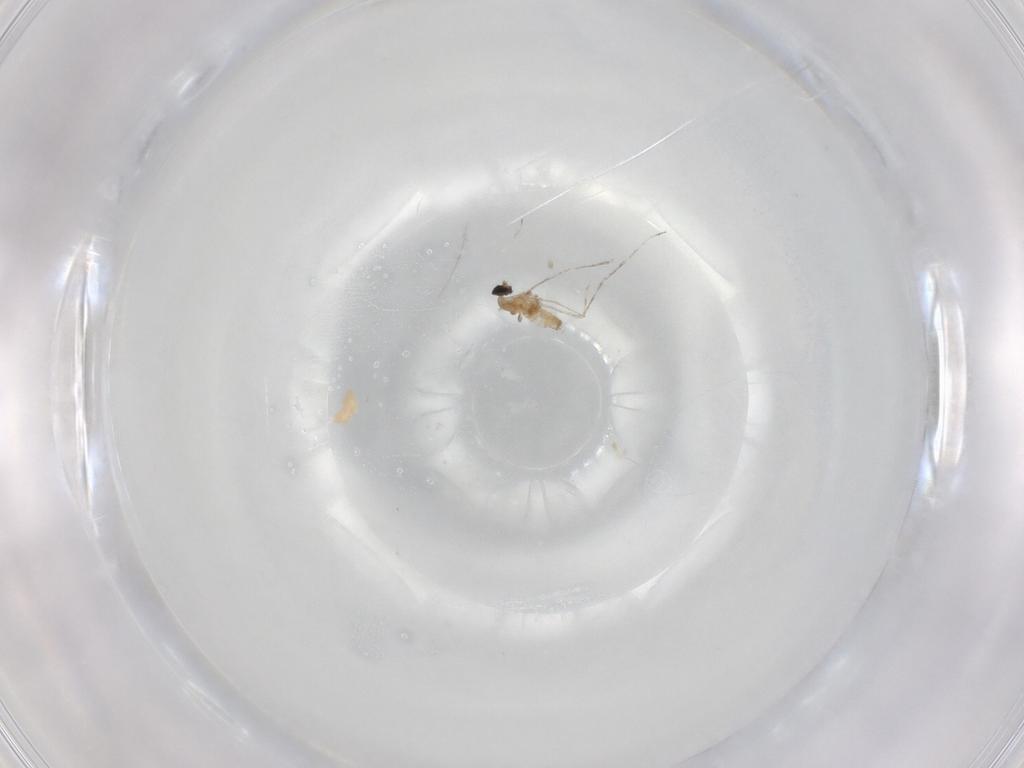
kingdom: Animalia
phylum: Arthropoda
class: Insecta
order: Diptera
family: Cecidomyiidae
